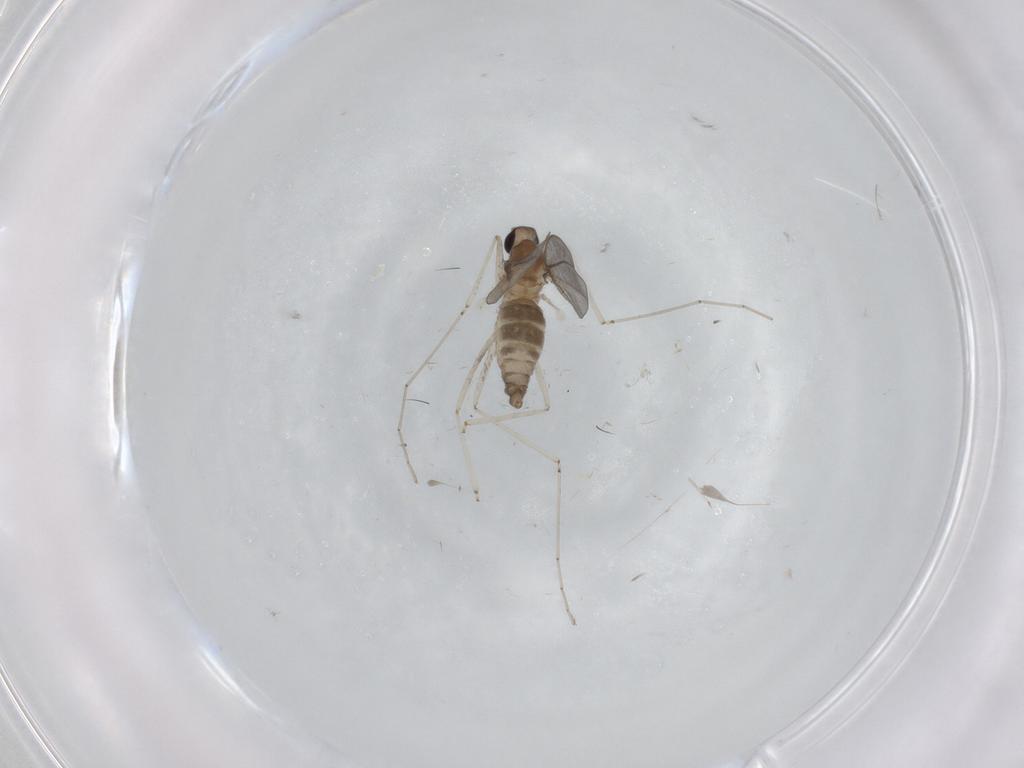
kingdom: Animalia
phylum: Arthropoda
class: Insecta
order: Diptera
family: Cecidomyiidae
